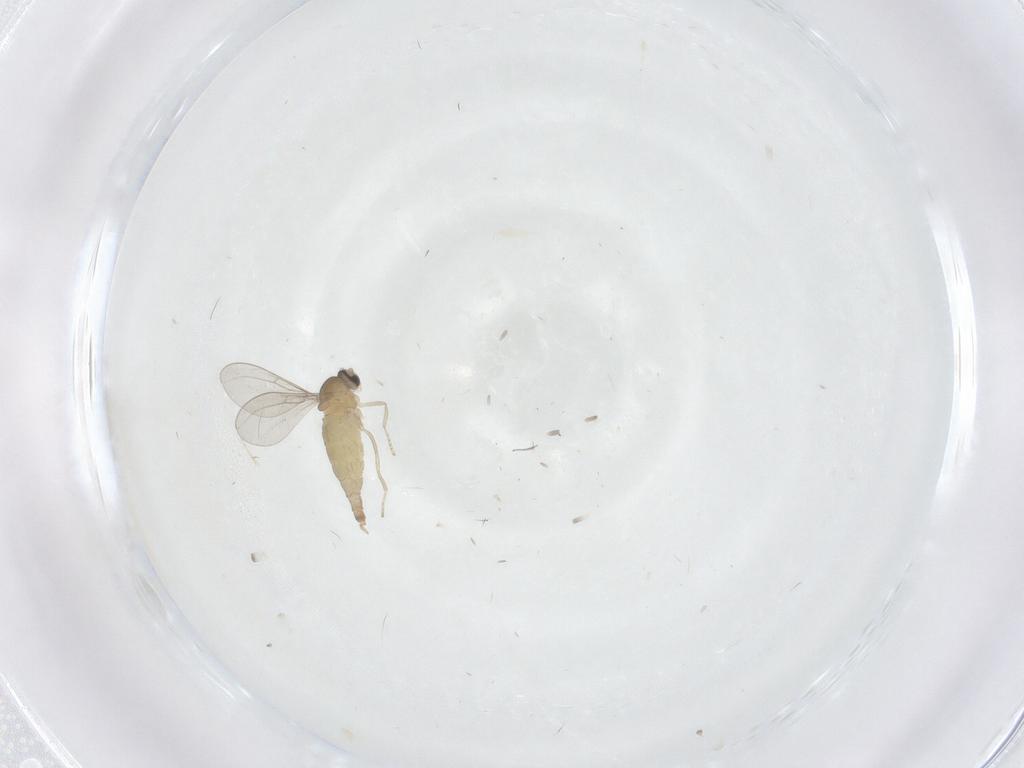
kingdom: Animalia
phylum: Arthropoda
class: Insecta
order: Diptera
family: Cecidomyiidae
